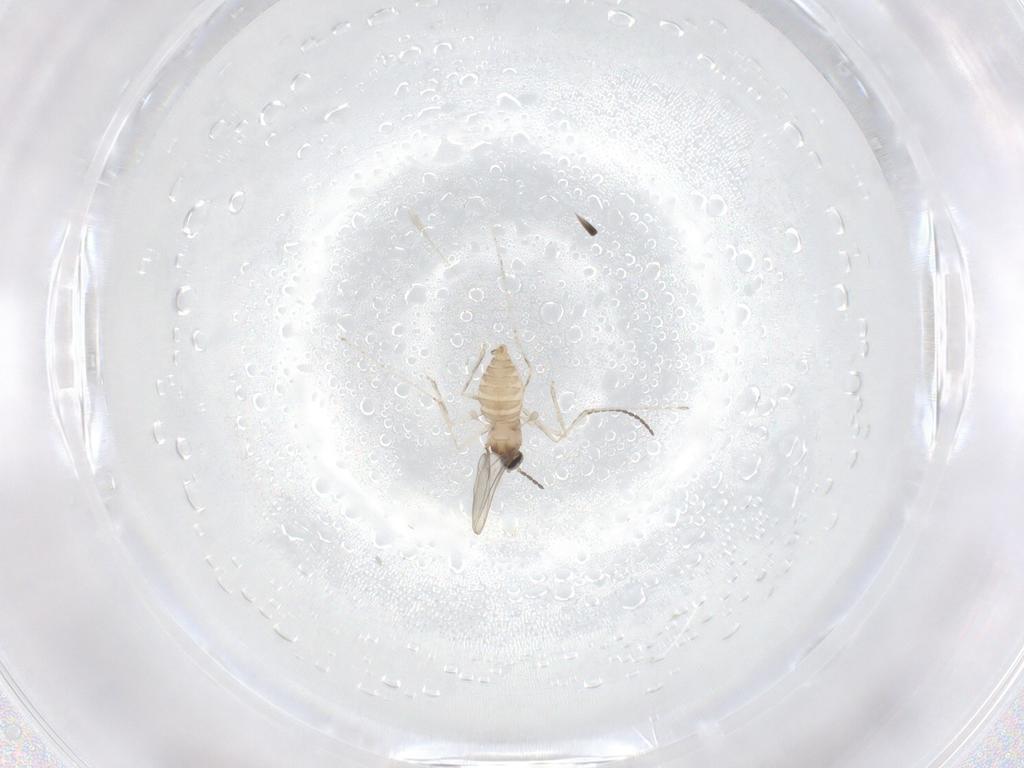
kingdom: Animalia
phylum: Arthropoda
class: Insecta
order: Diptera
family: Cecidomyiidae
